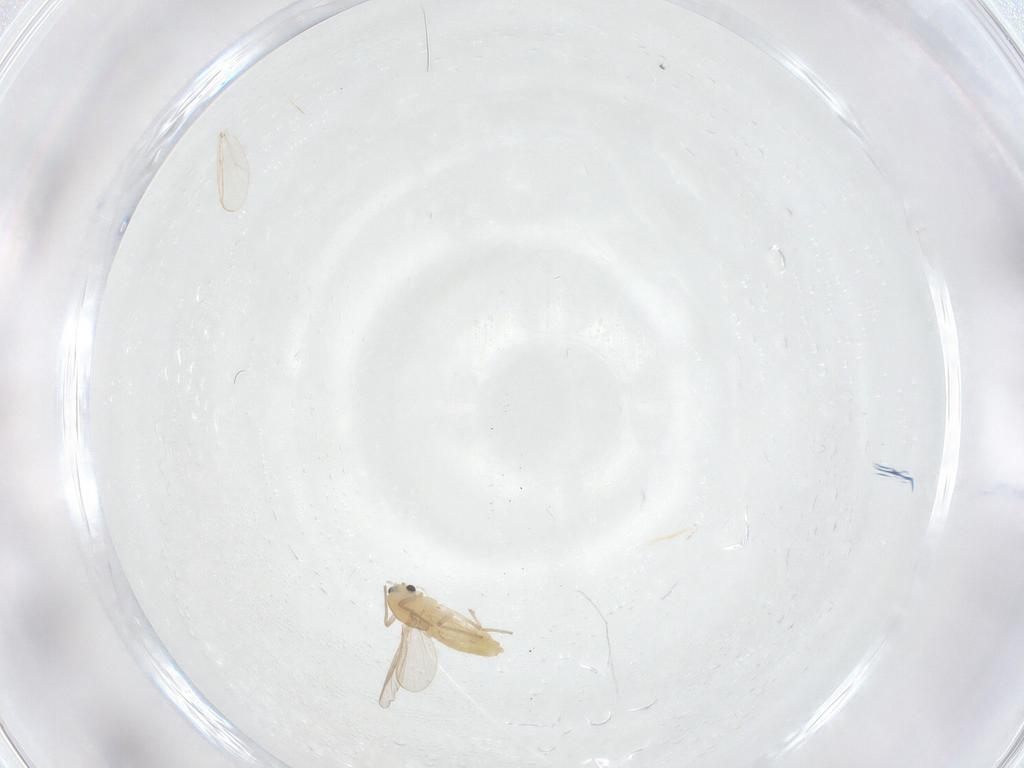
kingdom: Animalia
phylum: Arthropoda
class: Insecta
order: Diptera
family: Chironomidae
